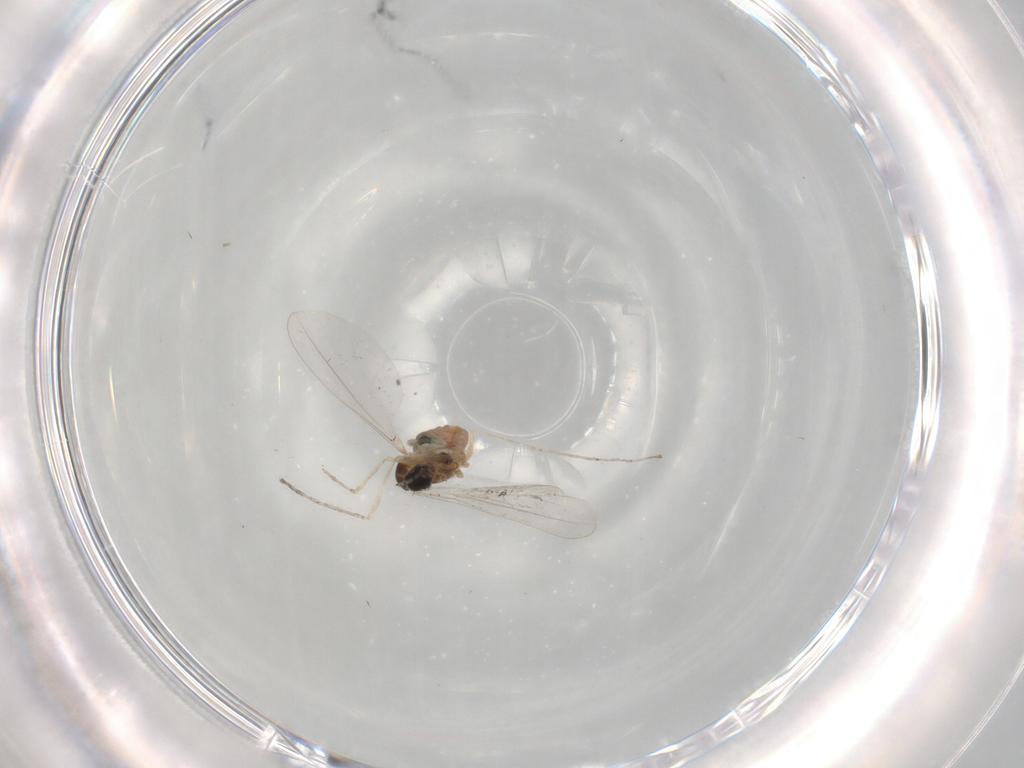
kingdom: Animalia
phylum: Arthropoda
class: Insecta
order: Diptera
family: Cecidomyiidae
